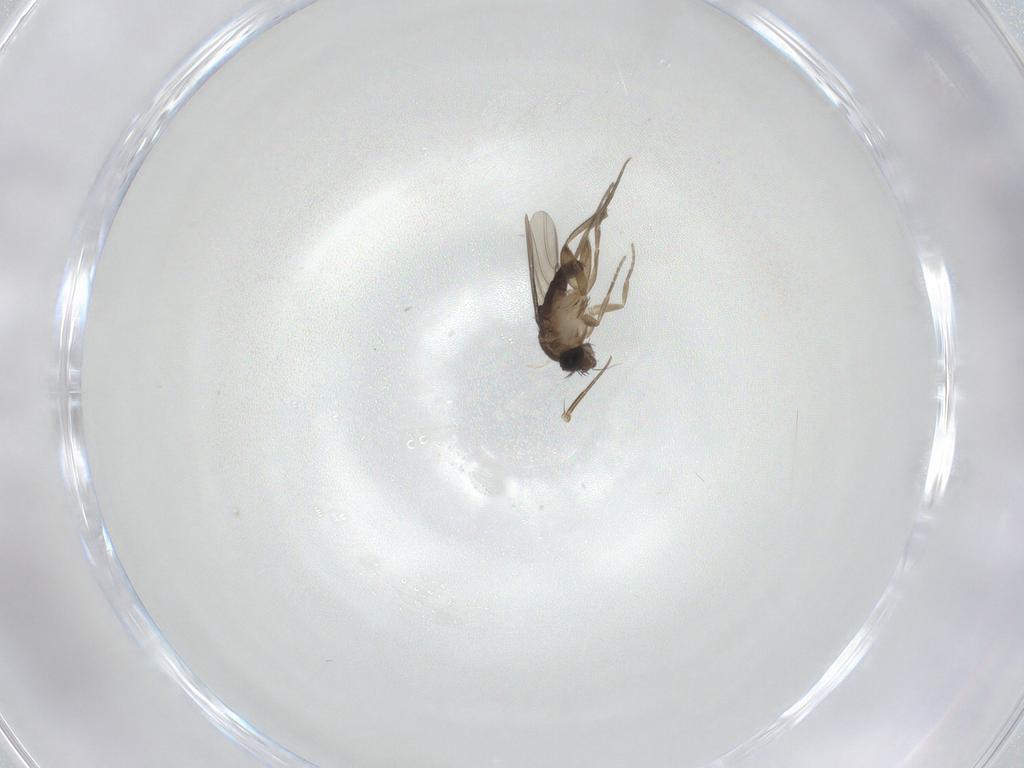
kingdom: Animalia
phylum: Arthropoda
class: Insecta
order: Diptera
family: Phoridae
